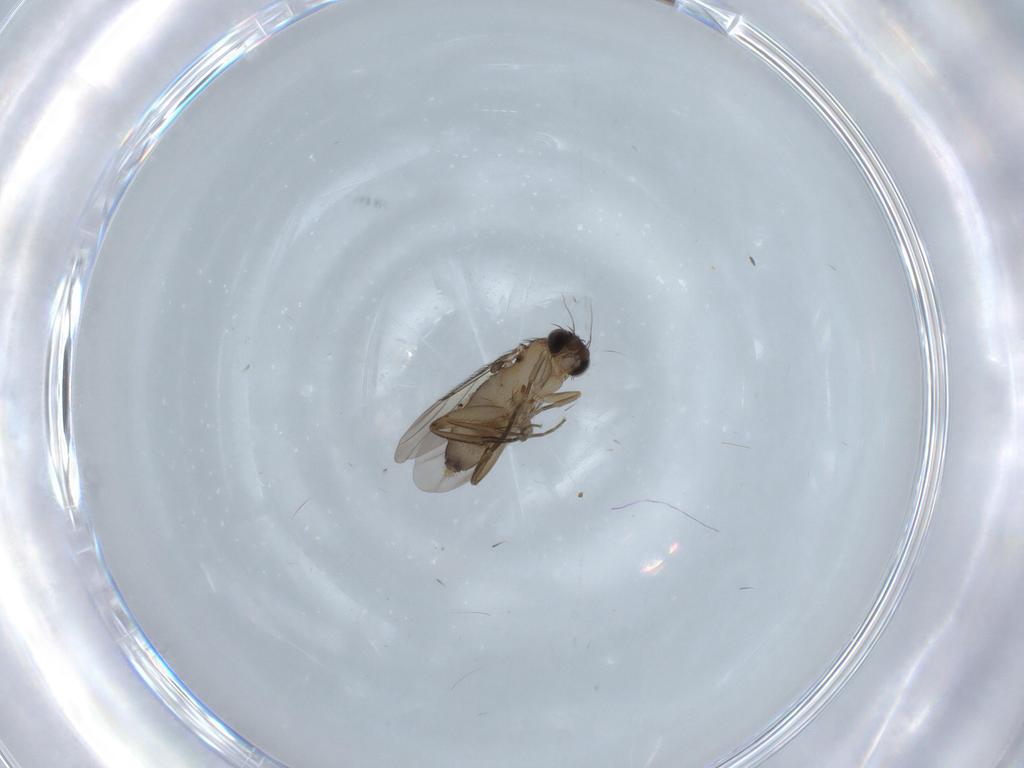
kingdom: Animalia
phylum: Arthropoda
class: Insecta
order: Diptera
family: Phoridae
